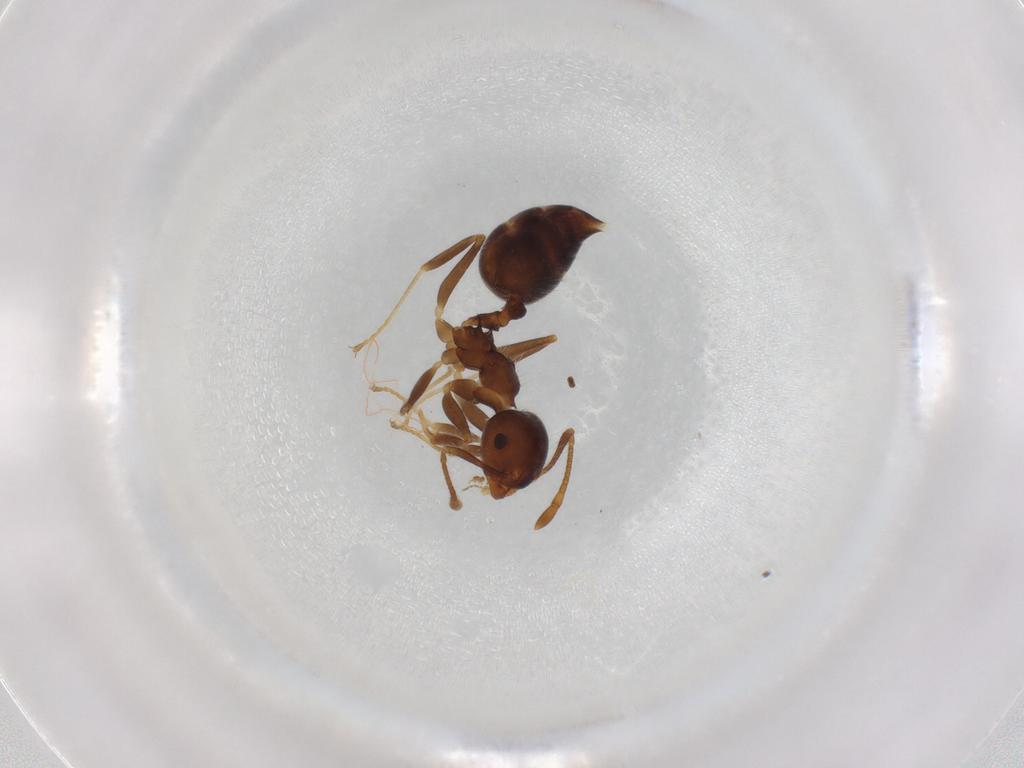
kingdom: Animalia
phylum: Arthropoda
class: Insecta
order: Hymenoptera
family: Formicidae
